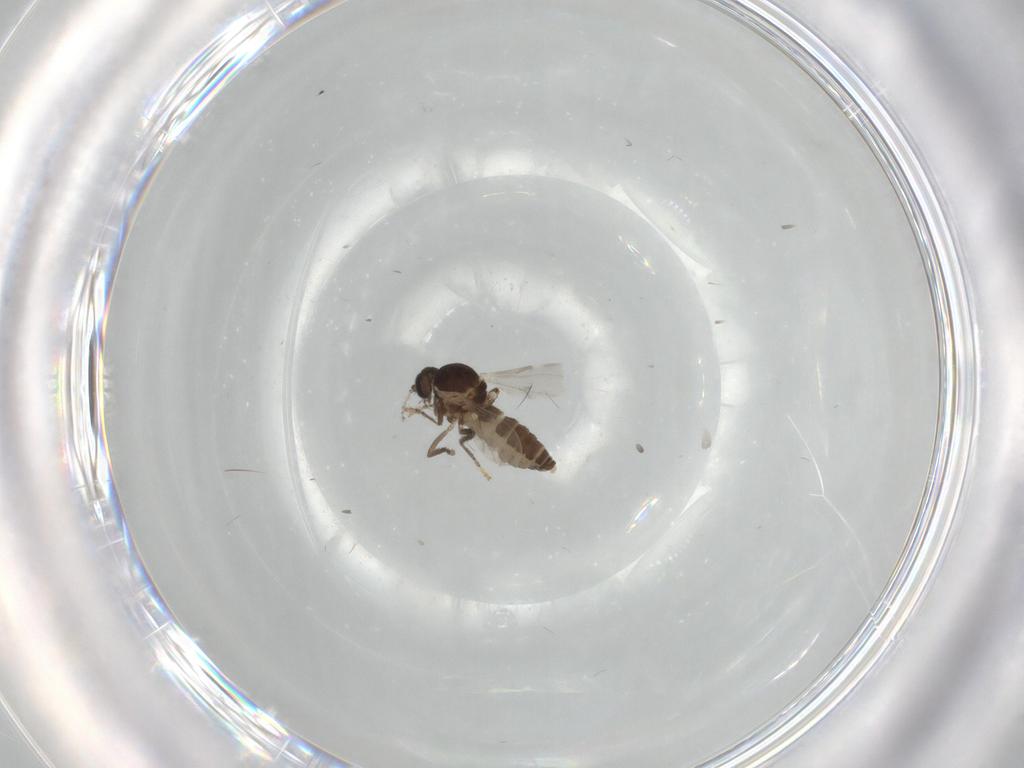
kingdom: Animalia
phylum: Arthropoda
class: Insecta
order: Diptera
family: Ceratopogonidae
